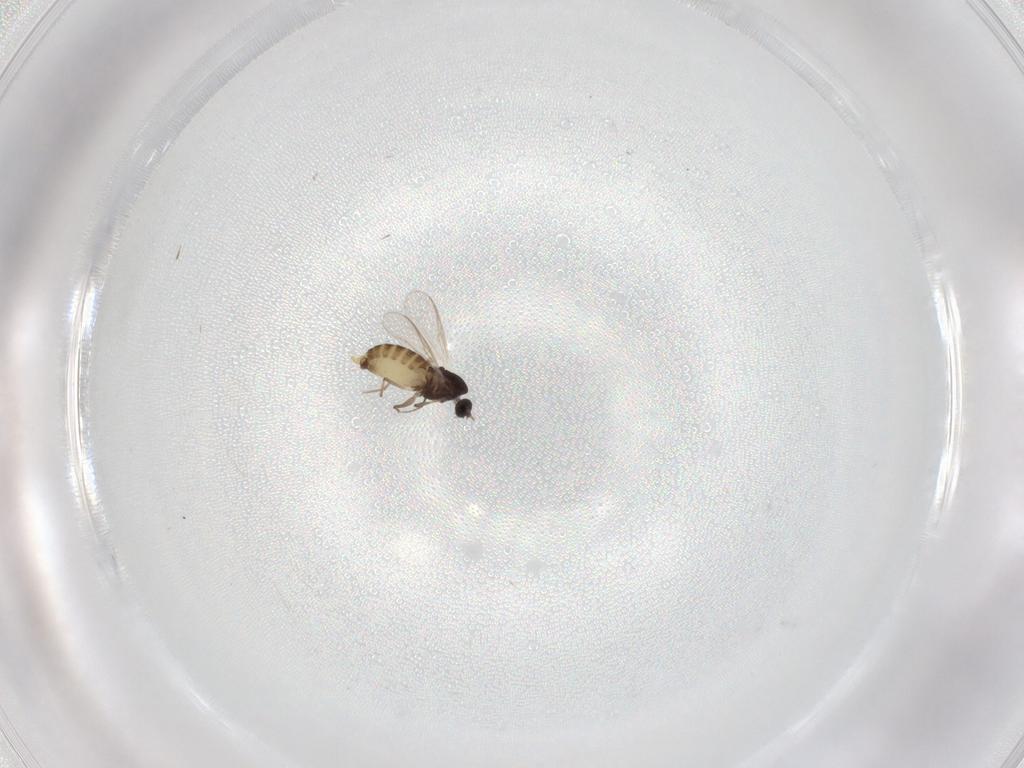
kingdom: Animalia
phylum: Arthropoda
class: Insecta
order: Diptera
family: Chironomidae
